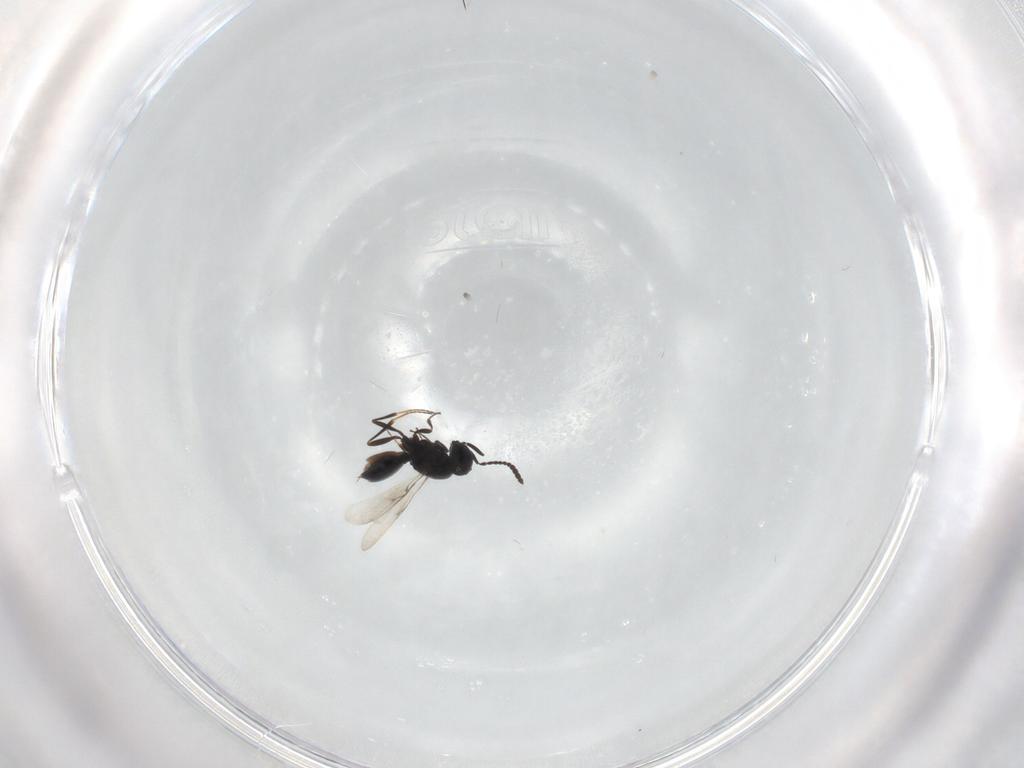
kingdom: Animalia
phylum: Arthropoda
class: Insecta
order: Hymenoptera
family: Scelionidae
